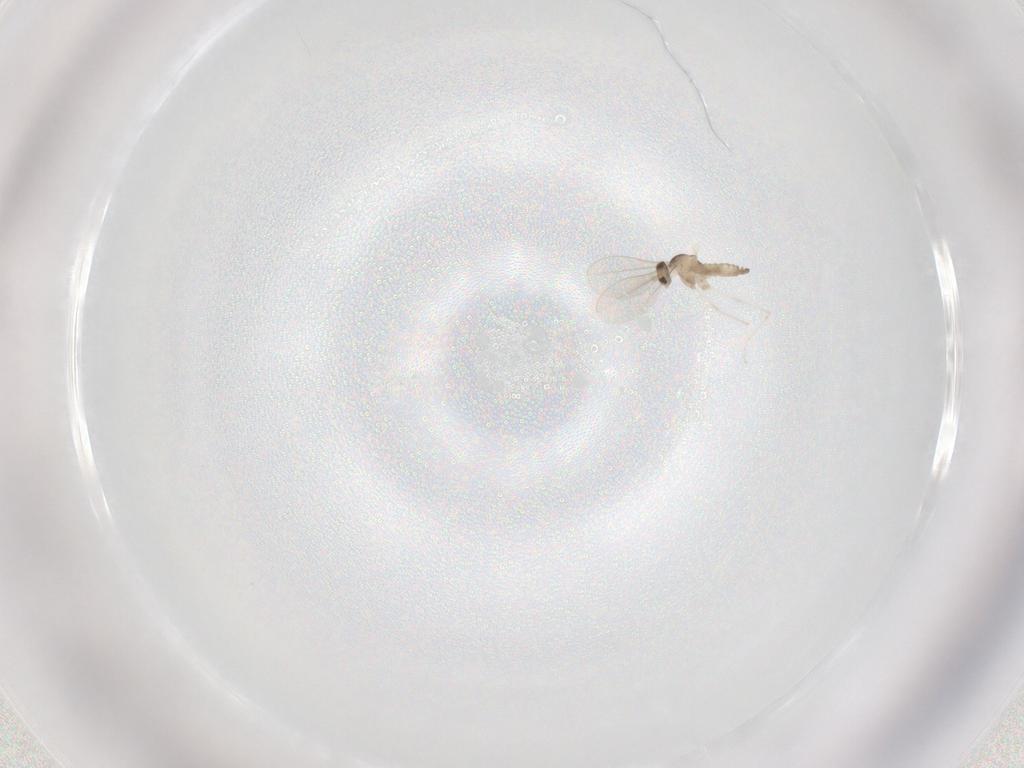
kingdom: Animalia
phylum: Arthropoda
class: Insecta
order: Diptera
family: Cecidomyiidae
